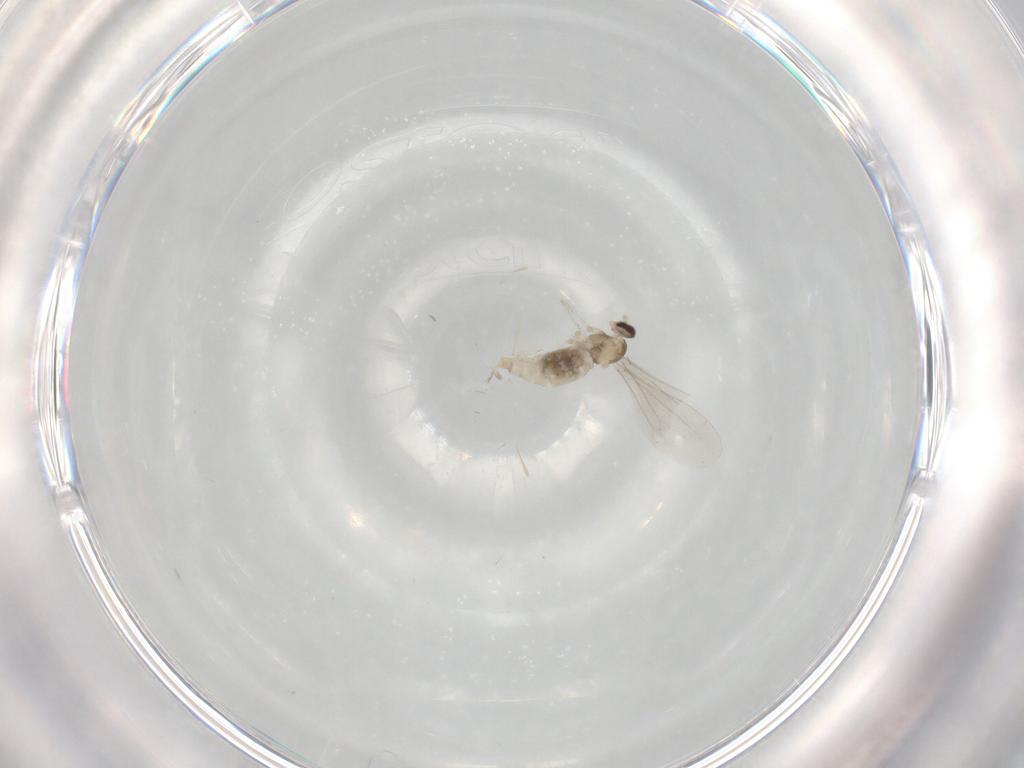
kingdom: Animalia
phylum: Arthropoda
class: Insecta
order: Diptera
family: Cecidomyiidae
